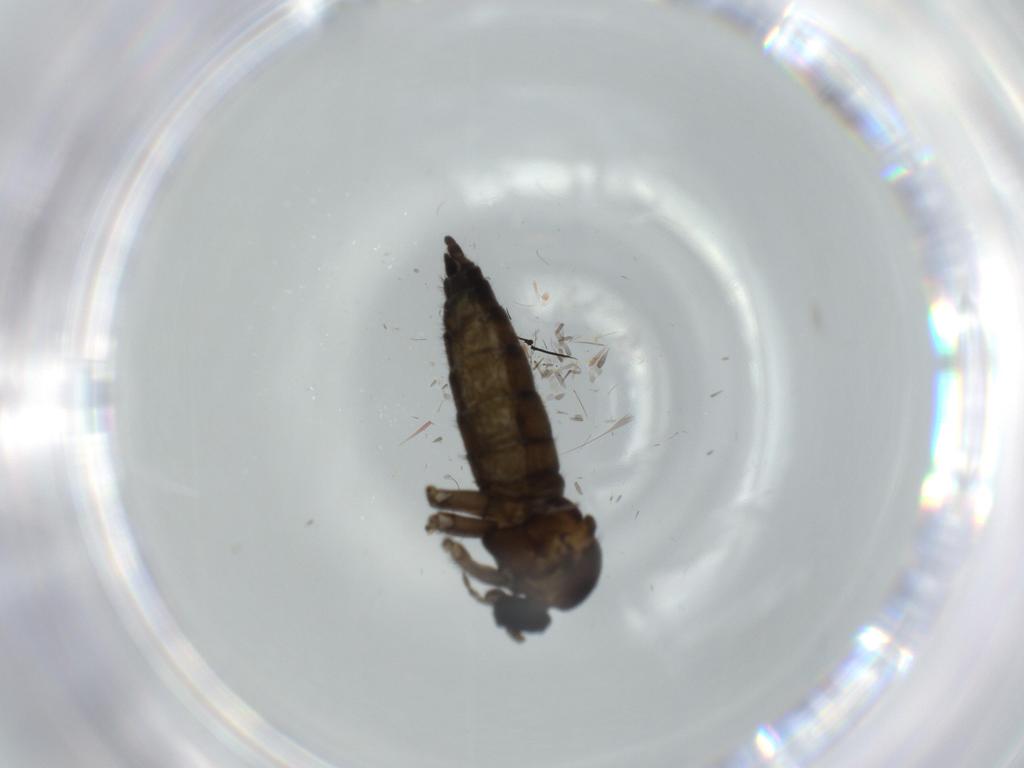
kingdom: Animalia
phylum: Arthropoda
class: Insecta
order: Diptera
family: Sciaridae
